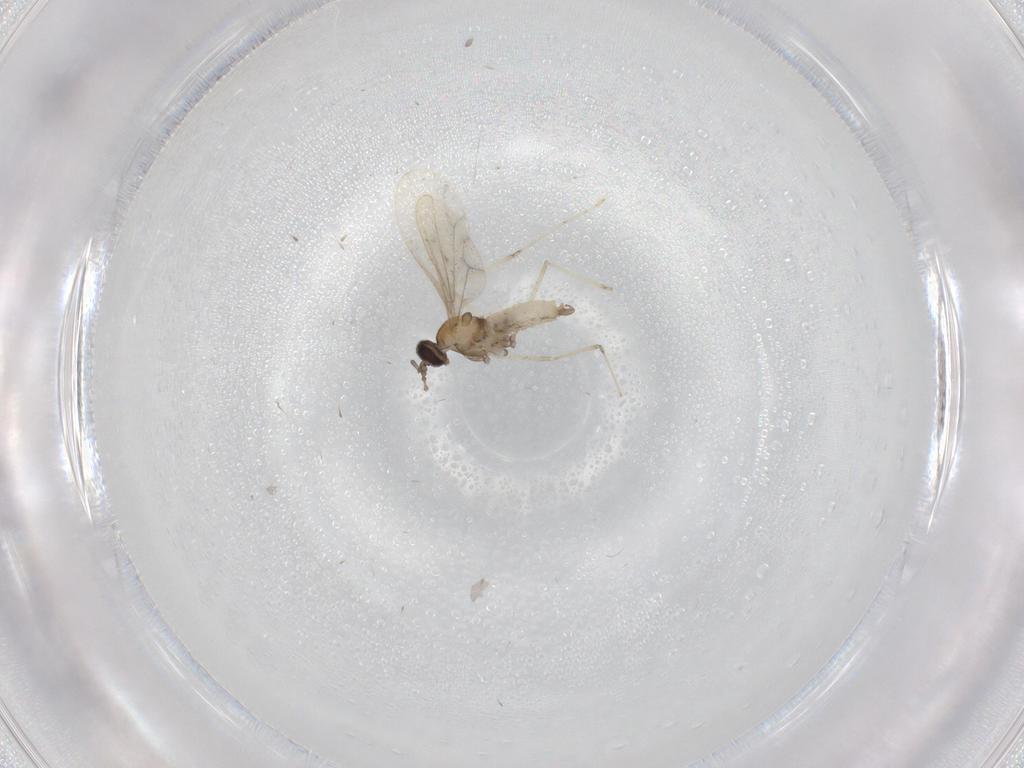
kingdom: Animalia
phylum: Arthropoda
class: Insecta
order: Diptera
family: Cecidomyiidae
